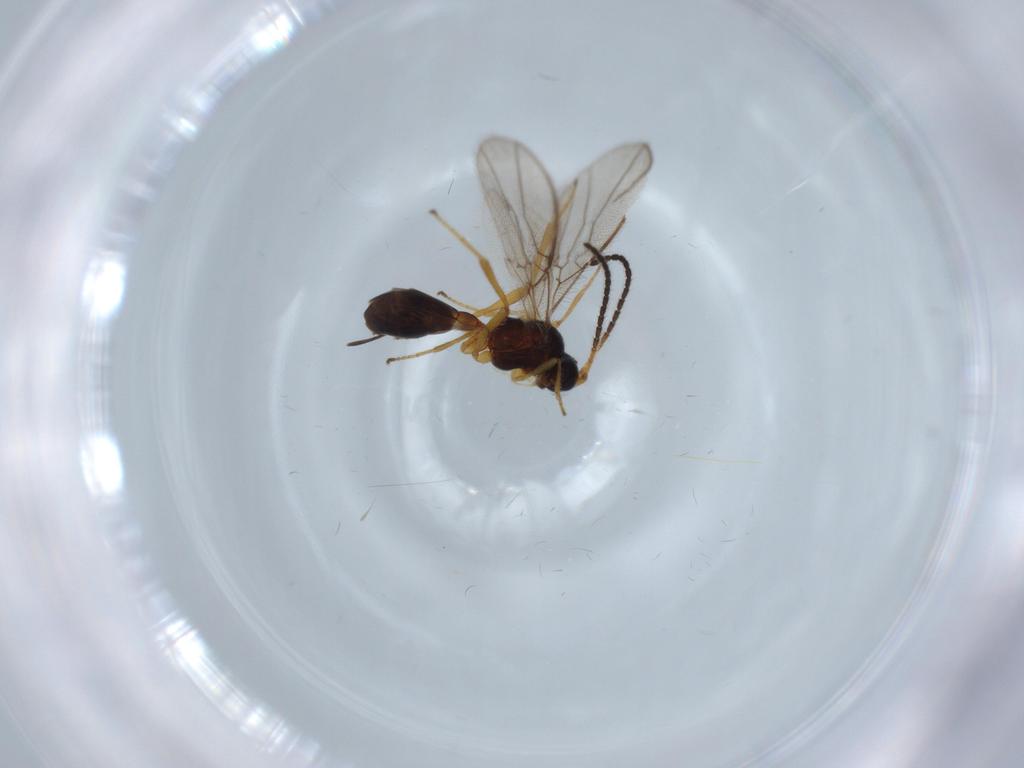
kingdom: Animalia
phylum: Arthropoda
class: Insecta
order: Hymenoptera
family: Braconidae
